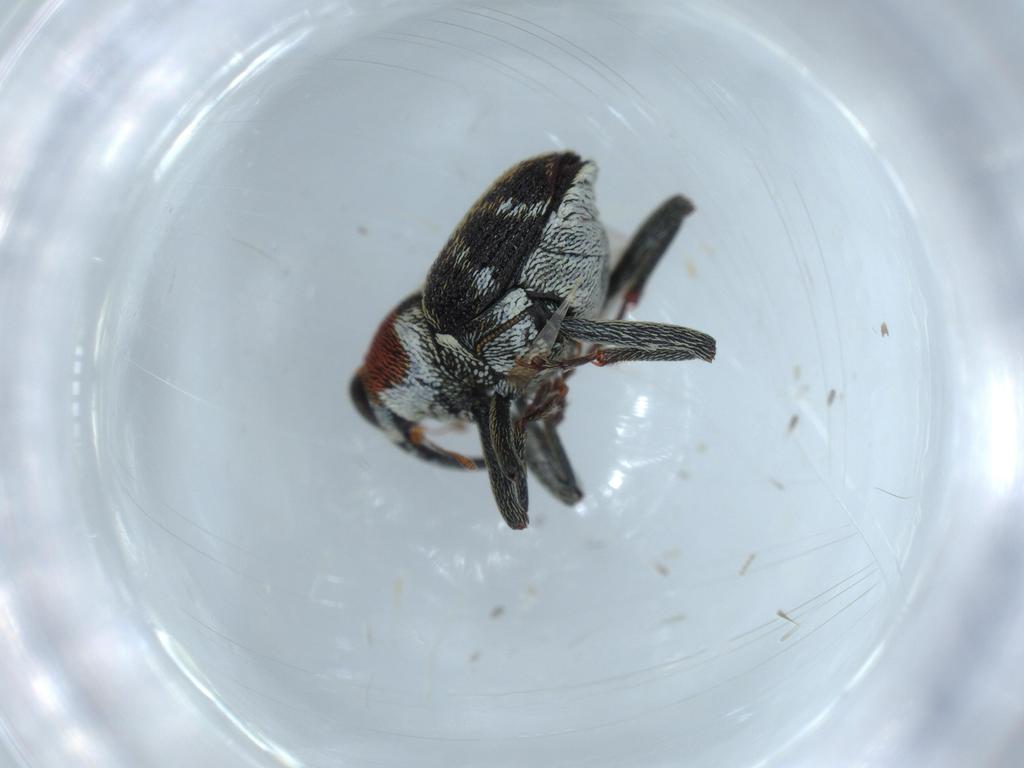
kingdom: Animalia
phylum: Arthropoda
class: Insecta
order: Coleoptera
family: Curculionidae
